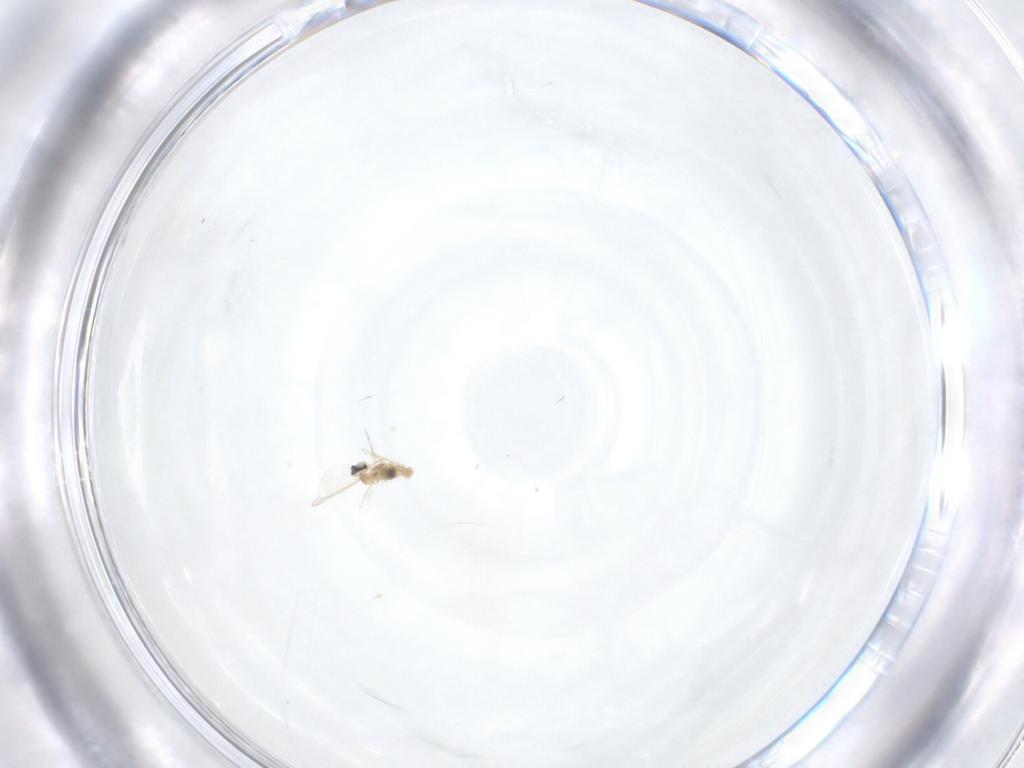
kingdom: Animalia
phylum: Arthropoda
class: Insecta
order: Diptera
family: Cecidomyiidae
